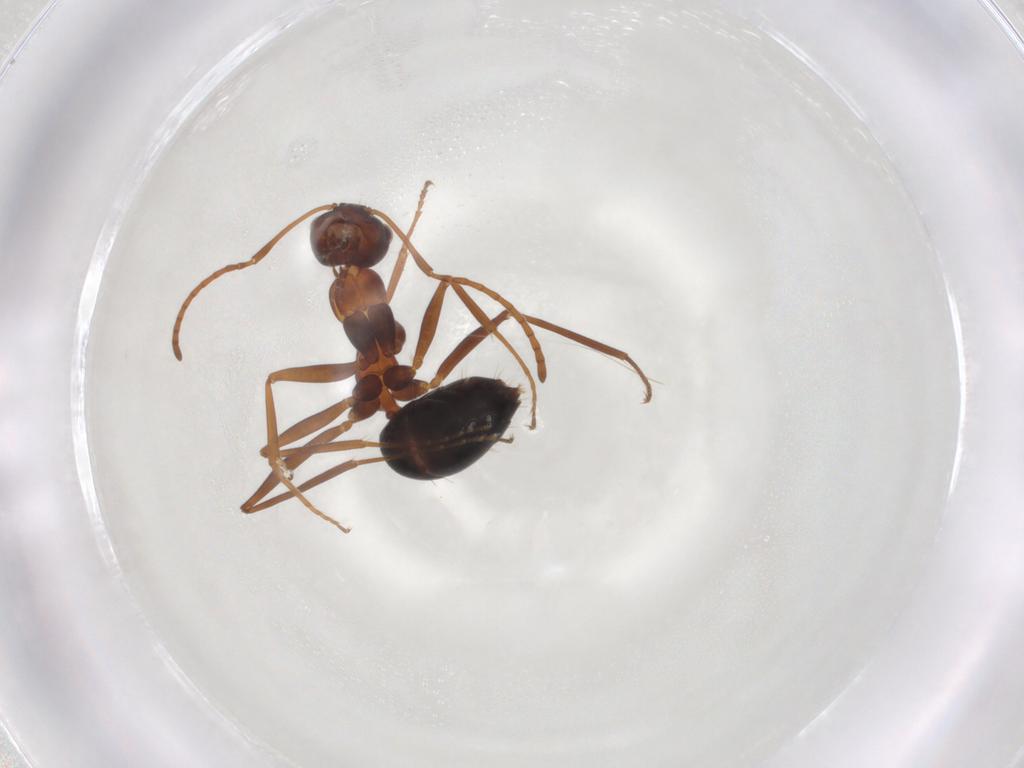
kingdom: Animalia
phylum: Arthropoda
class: Insecta
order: Hymenoptera
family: Formicidae
